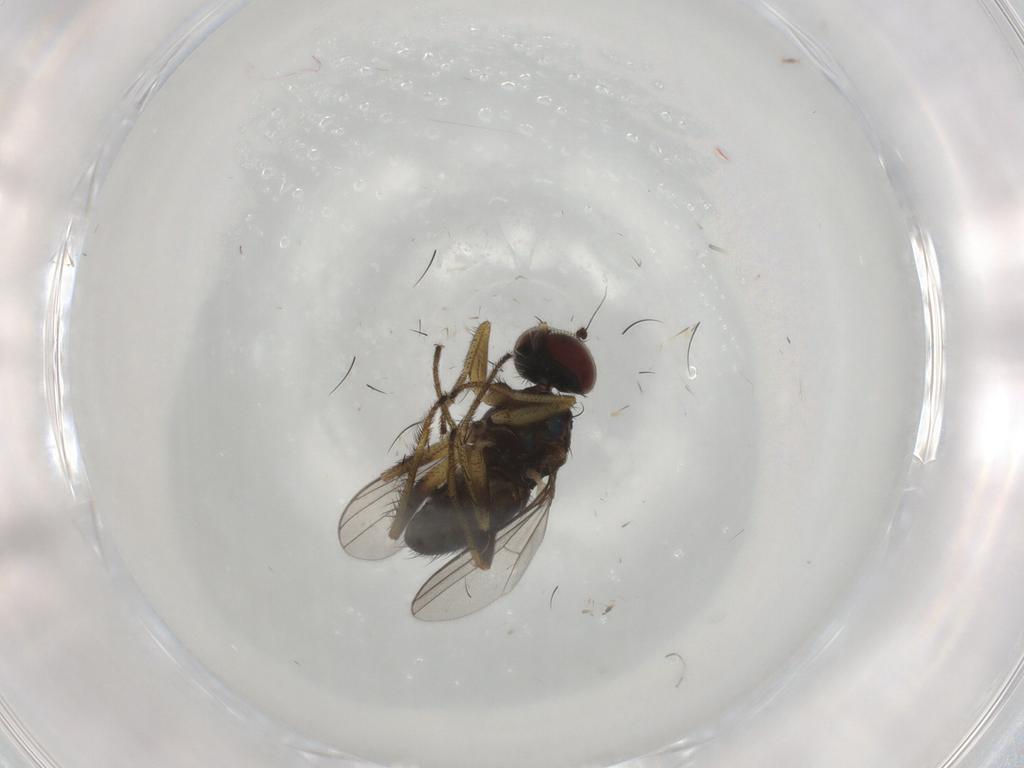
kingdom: Animalia
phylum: Arthropoda
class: Insecta
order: Diptera
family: Dolichopodidae
